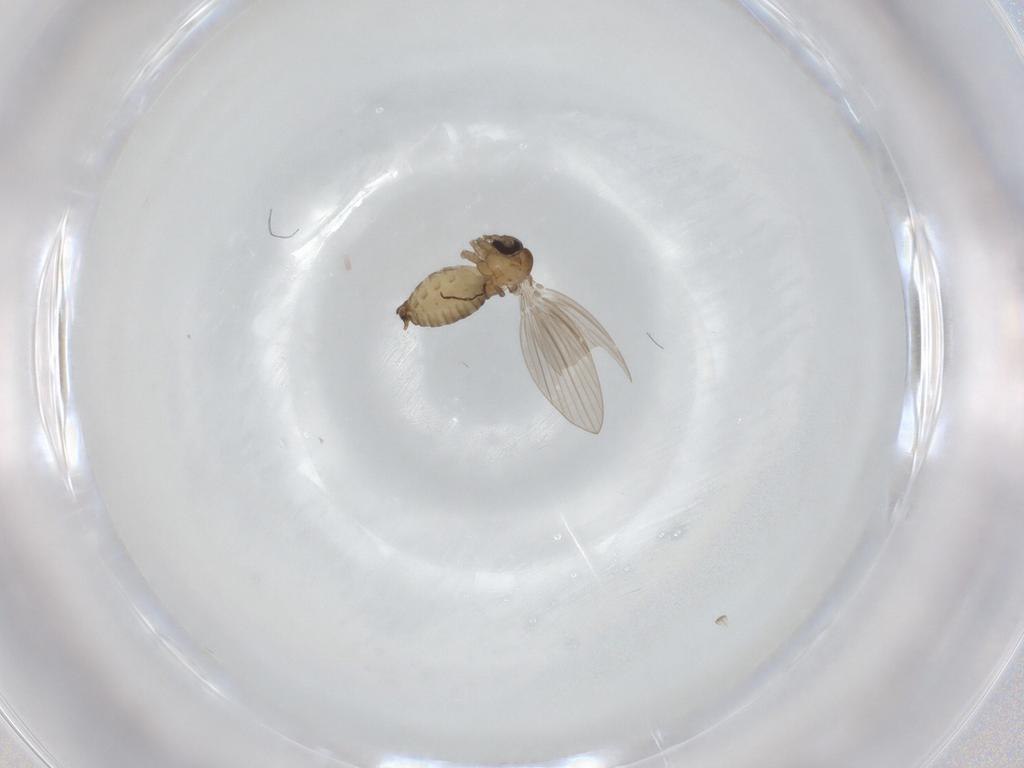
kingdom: Animalia
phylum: Arthropoda
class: Insecta
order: Diptera
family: Psychodidae
